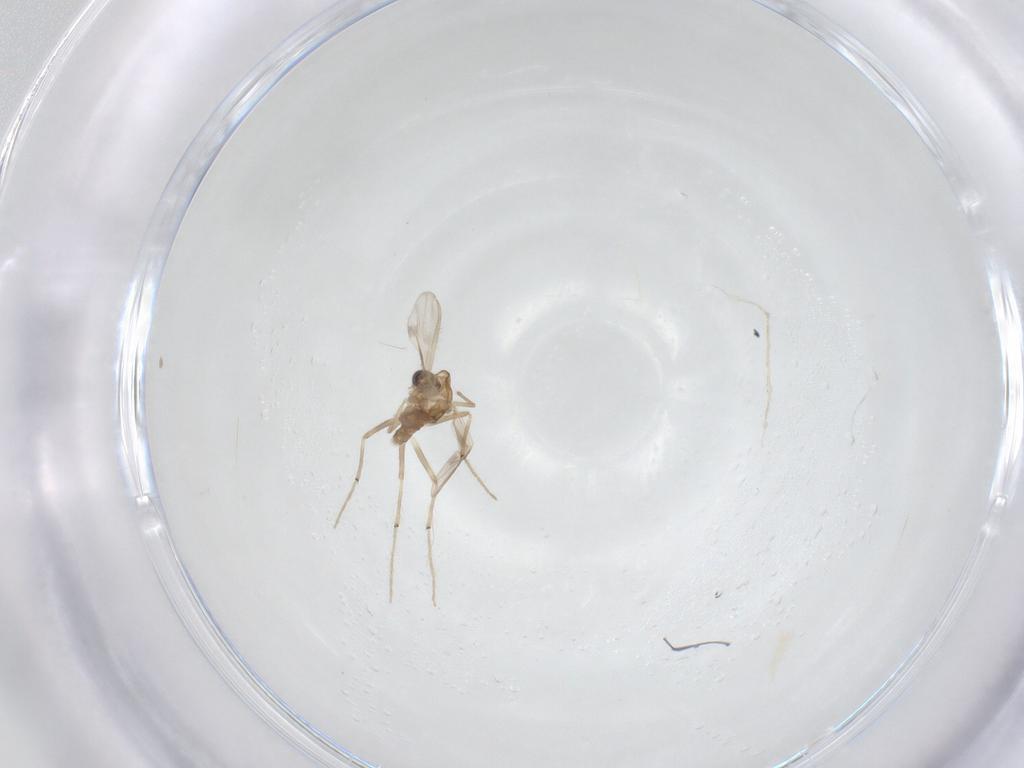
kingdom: Animalia
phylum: Arthropoda
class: Insecta
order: Diptera
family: Chironomidae
